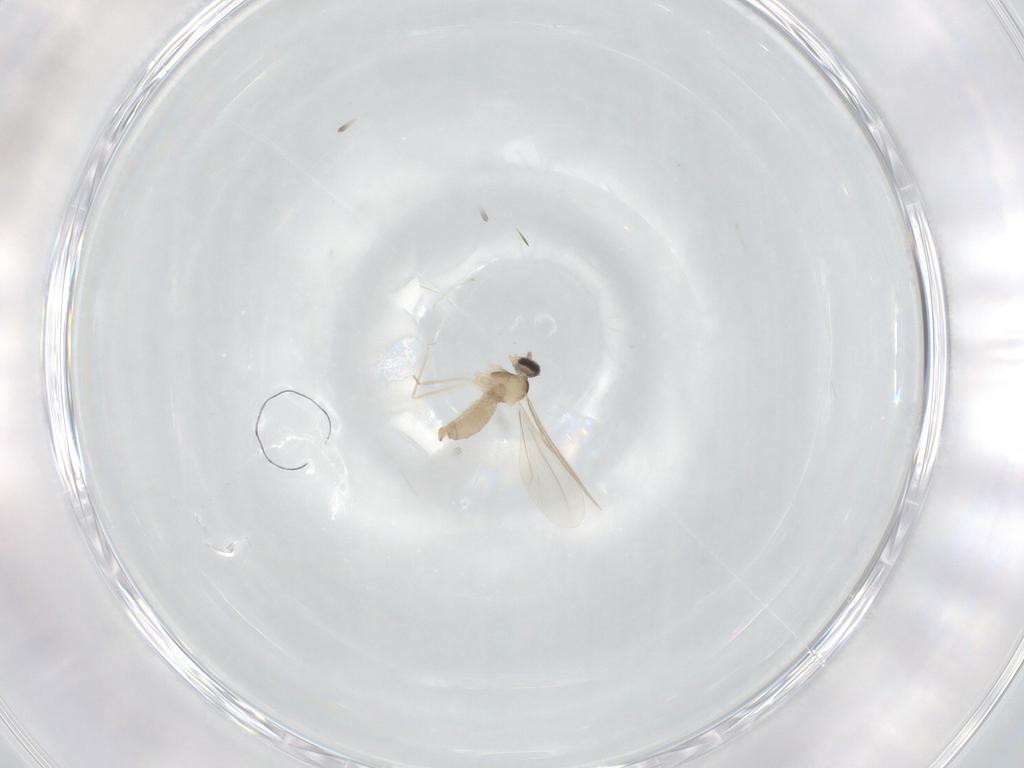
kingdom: Animalia
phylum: Arthropoda
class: Insecta
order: Diptera
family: Cecidomyiidae
